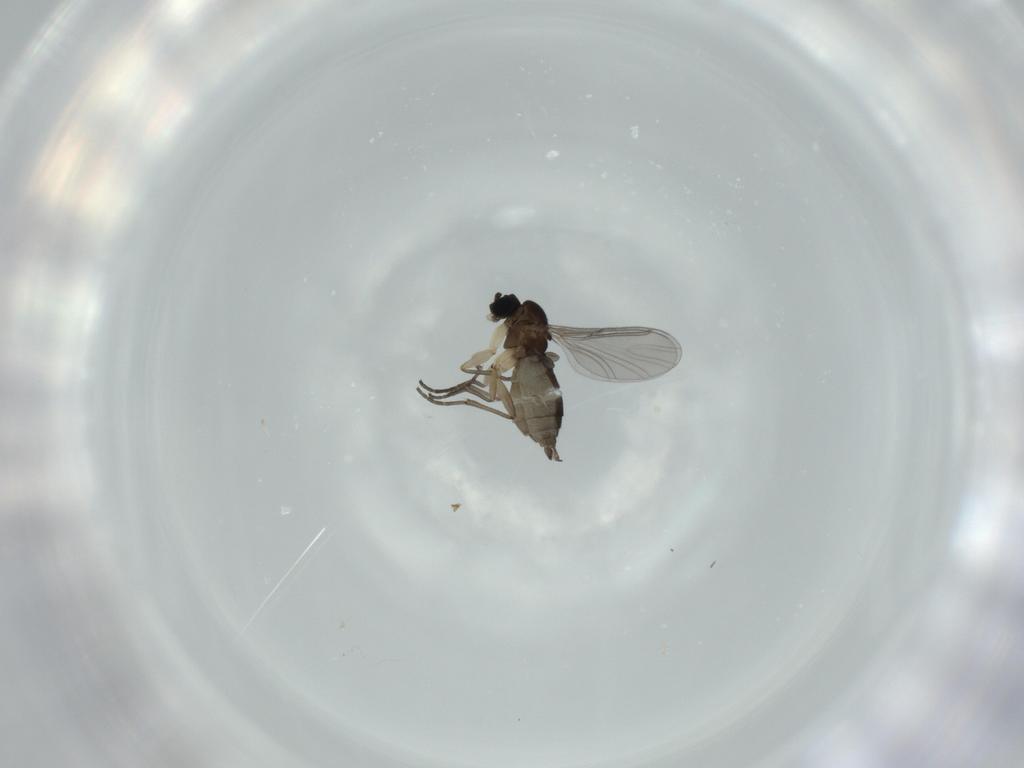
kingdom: Animalia
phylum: Arthropoda
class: Insecta
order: Diptera
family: Sciaridae
